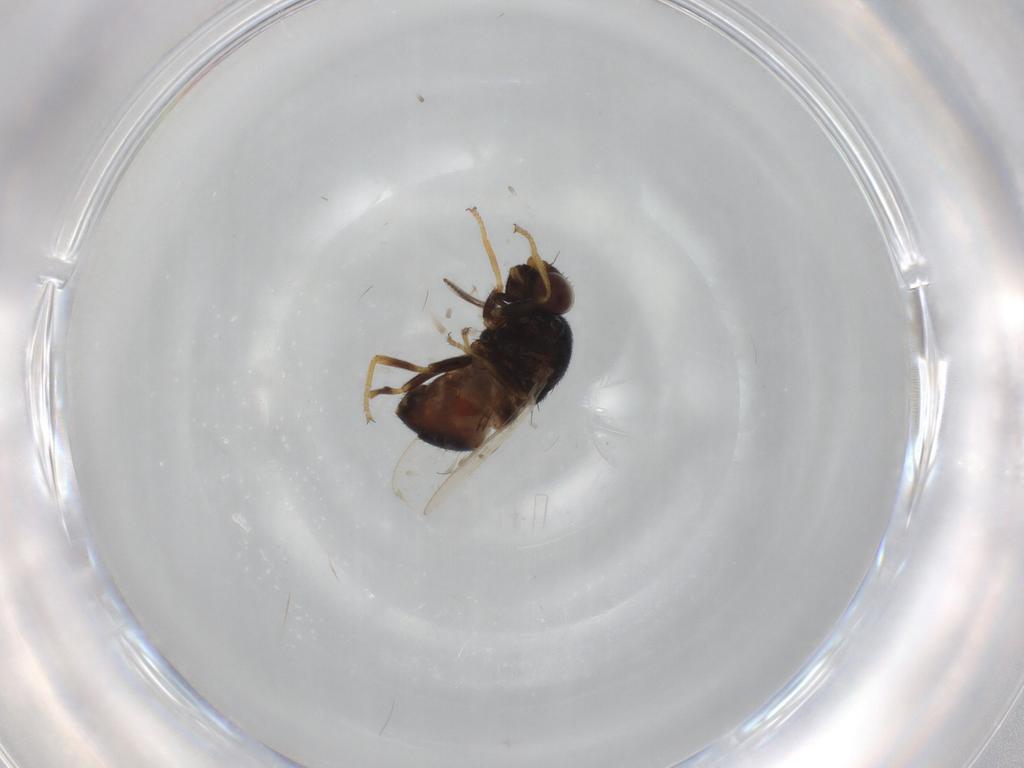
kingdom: Animalia
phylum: Arthropoda
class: Insecta
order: Diptera
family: Chloropidae
